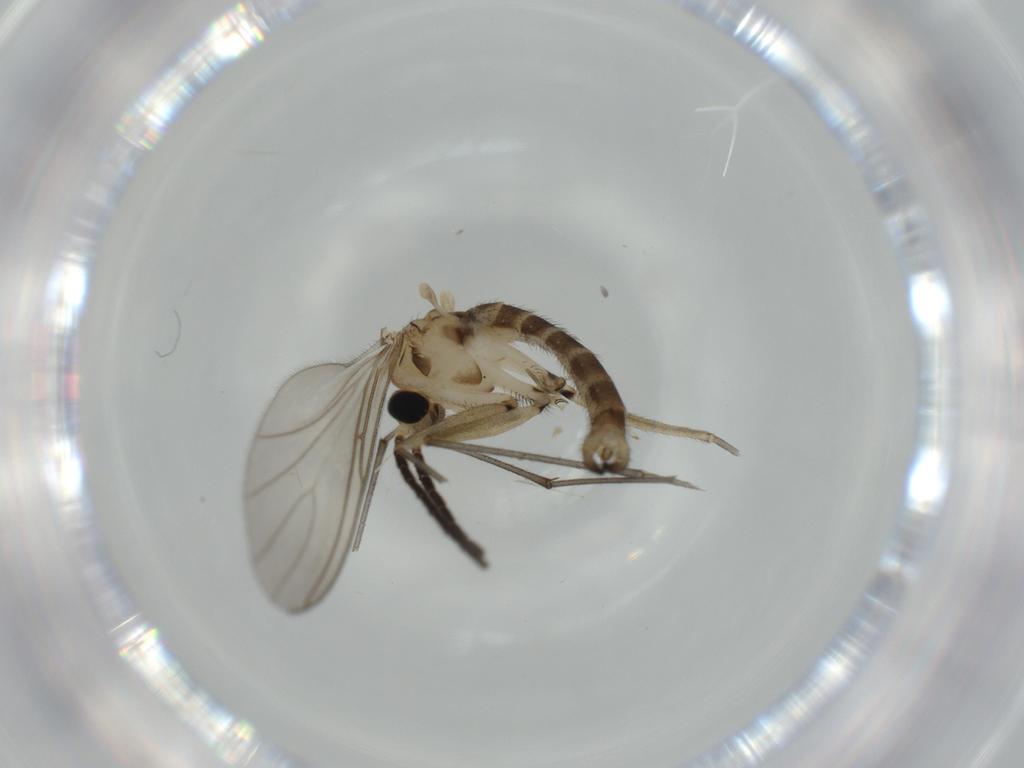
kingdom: Animalia
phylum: Arthropoda
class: Insecta
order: Diptera
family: Sciaridae
